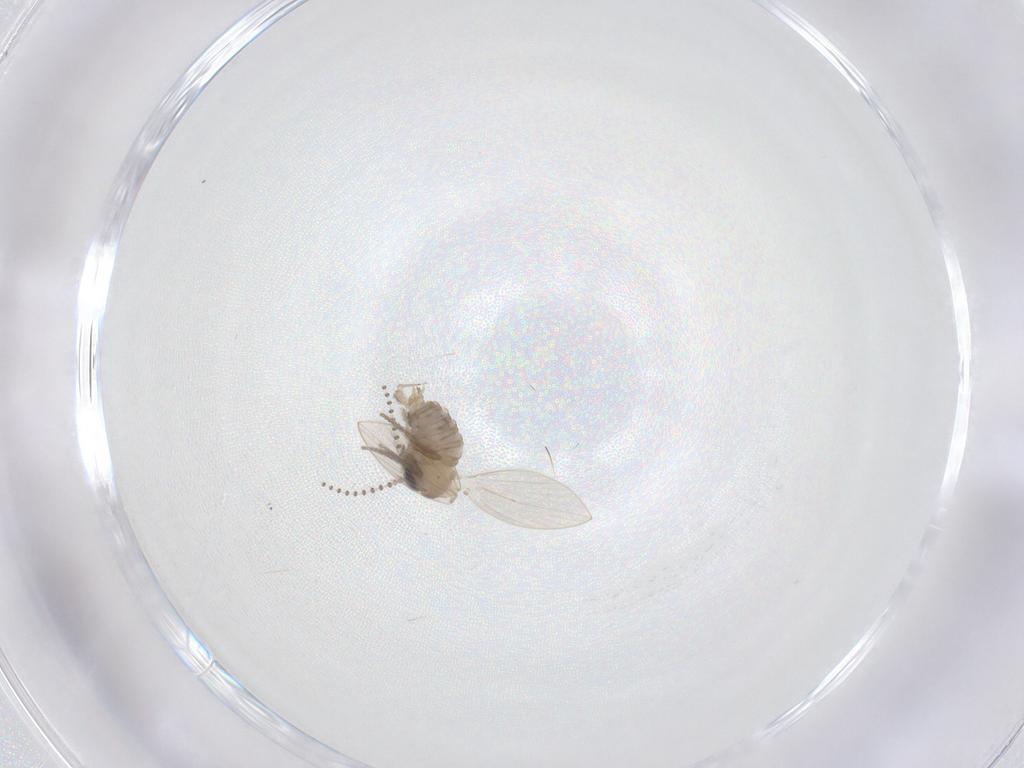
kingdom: Animalia
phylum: Arthropoda
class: Insecta
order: Diptera
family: Psychodidae
